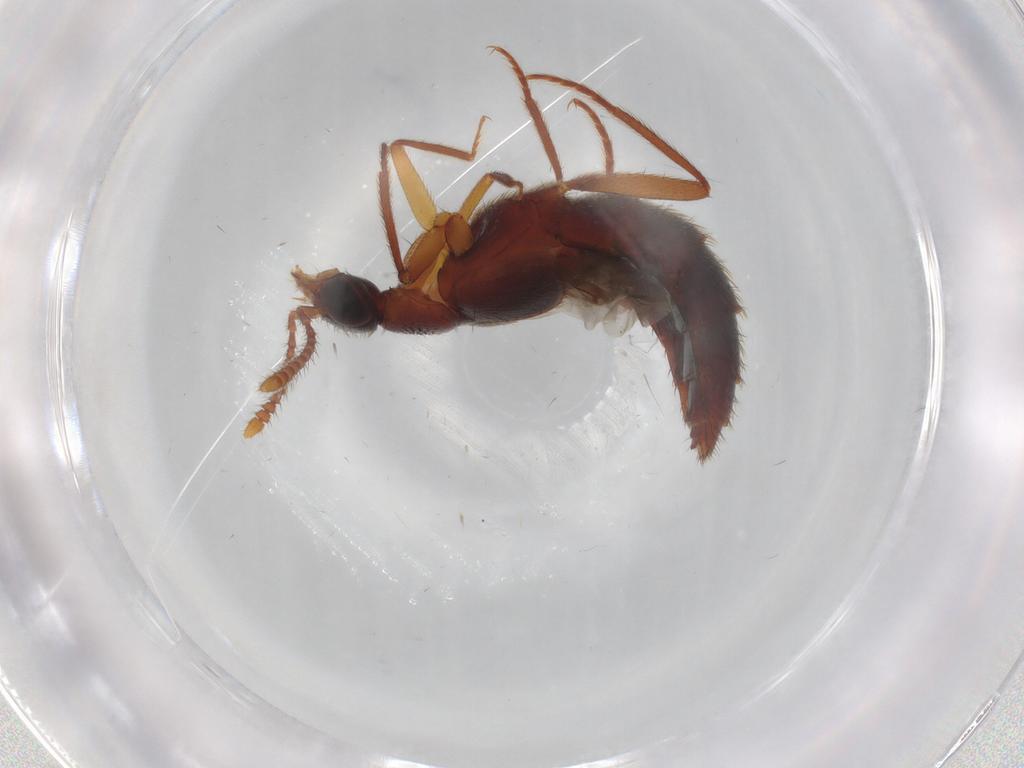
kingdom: Animalia
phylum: Arthropoda
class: Insecta
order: Coleoptera
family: Staphylinidae
